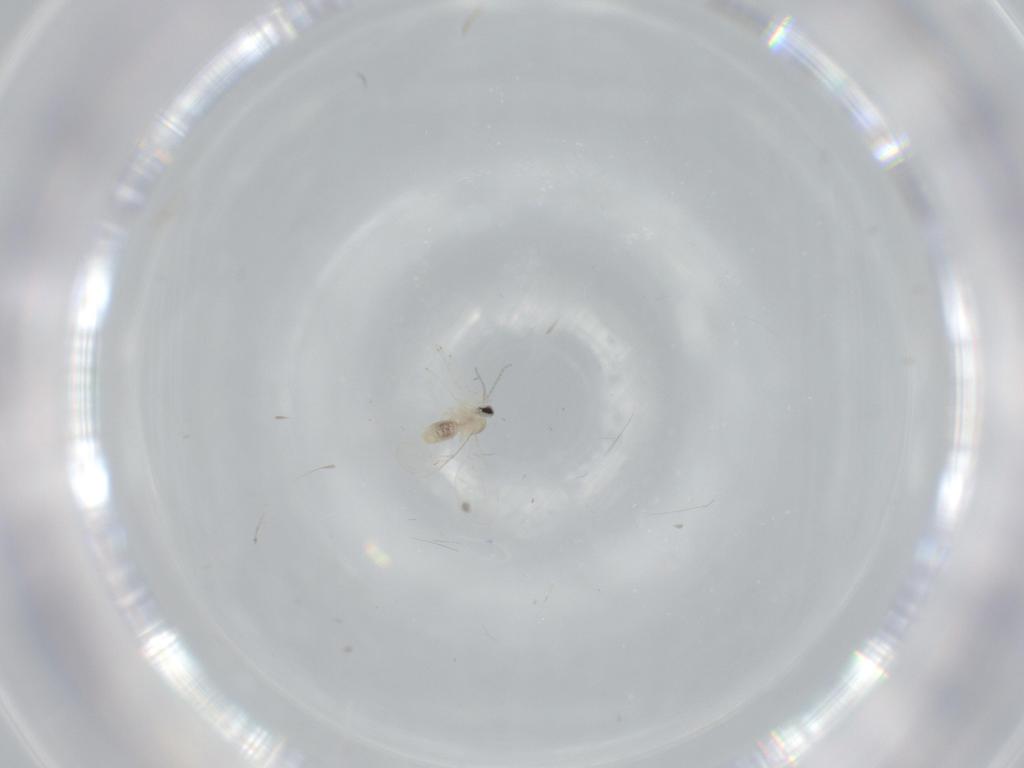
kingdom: Animalia
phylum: Arthropoda
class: Insecta
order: Diptera
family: Cecidomyiidae
